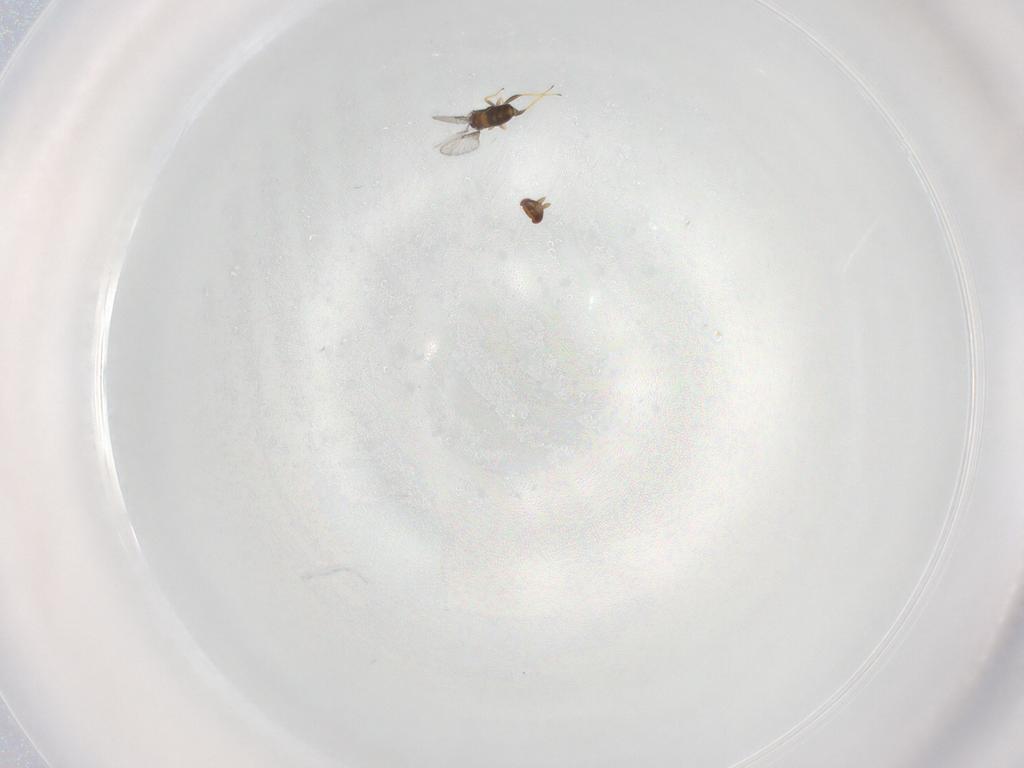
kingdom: Animalia
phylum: Arthropoda
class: Insecta
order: Hymenoptera
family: Trichogrammatidae
